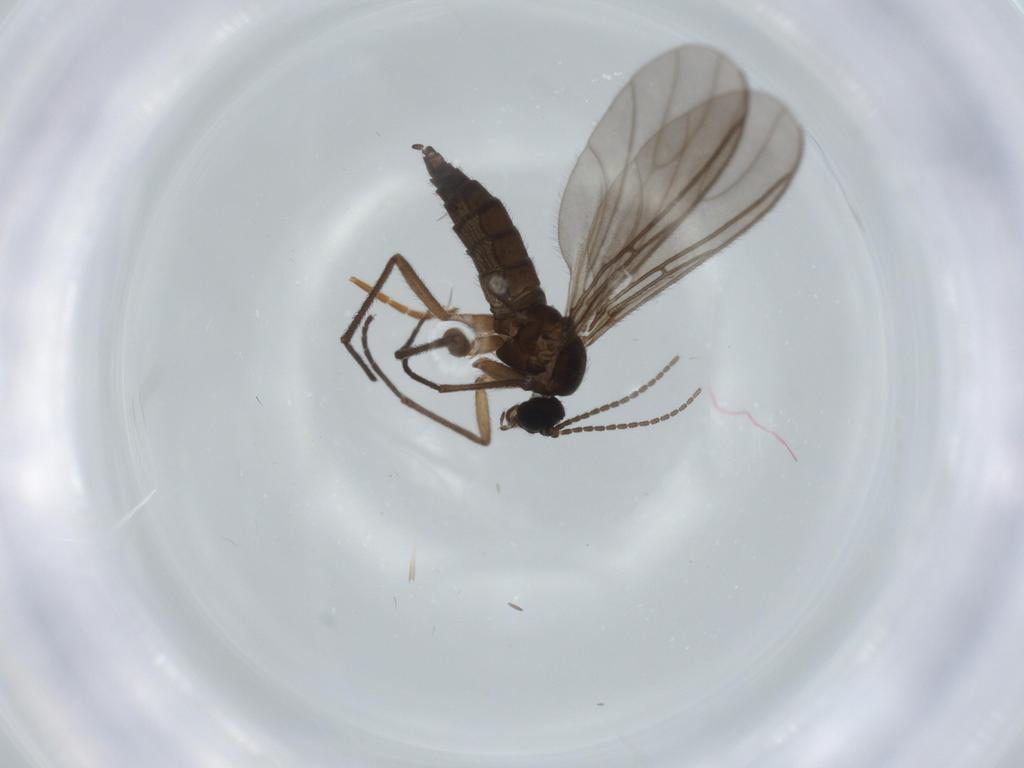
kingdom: Animalia
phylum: Arthropoda
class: Insecta
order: Diptera
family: Sciaridae
